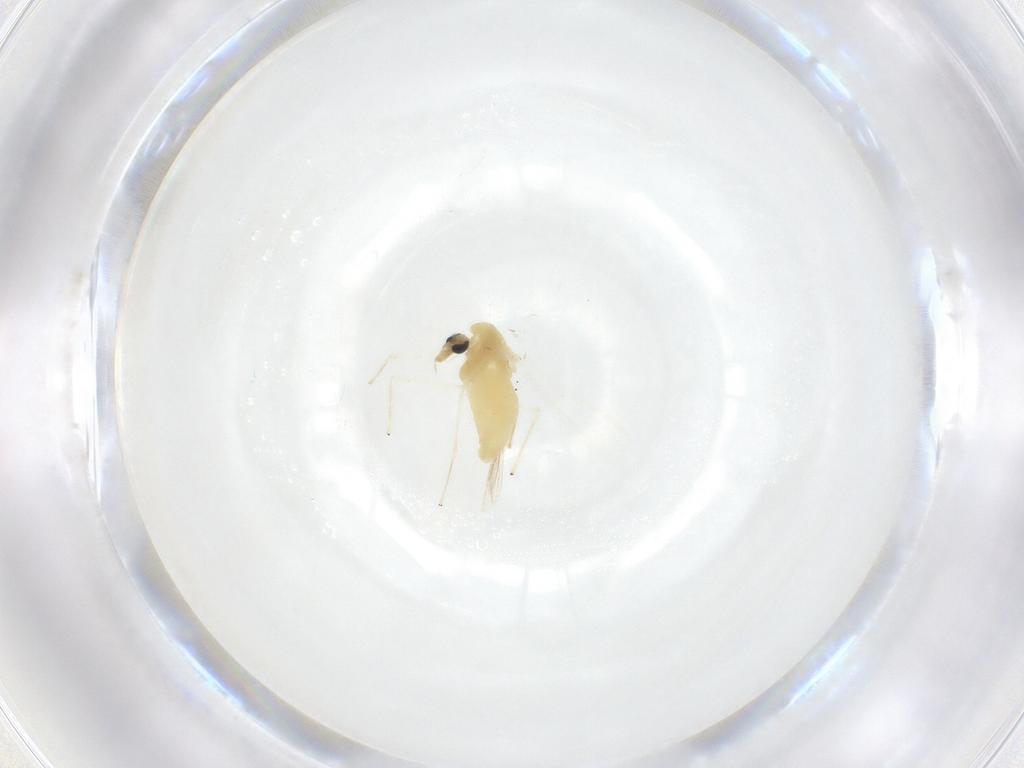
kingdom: Animalia
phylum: Arthropoda
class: Insecta
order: Diptera
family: Chironomidae
